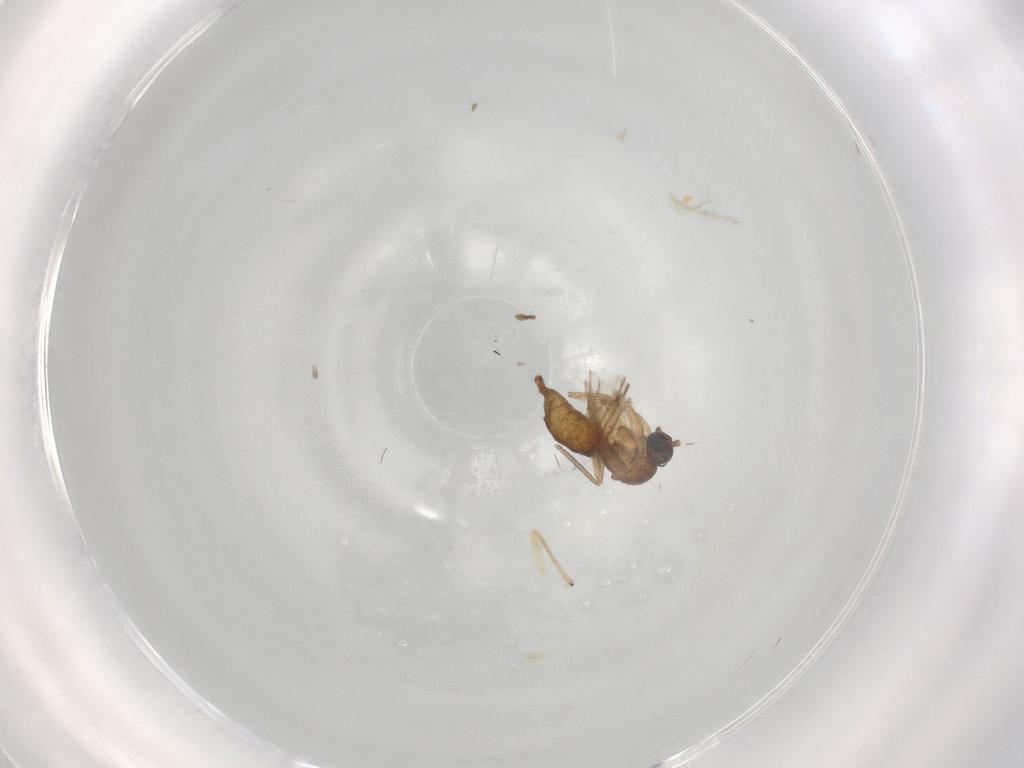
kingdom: Animalia
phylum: Arthropoda
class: Insecta
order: Diptera
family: Sciaridae
